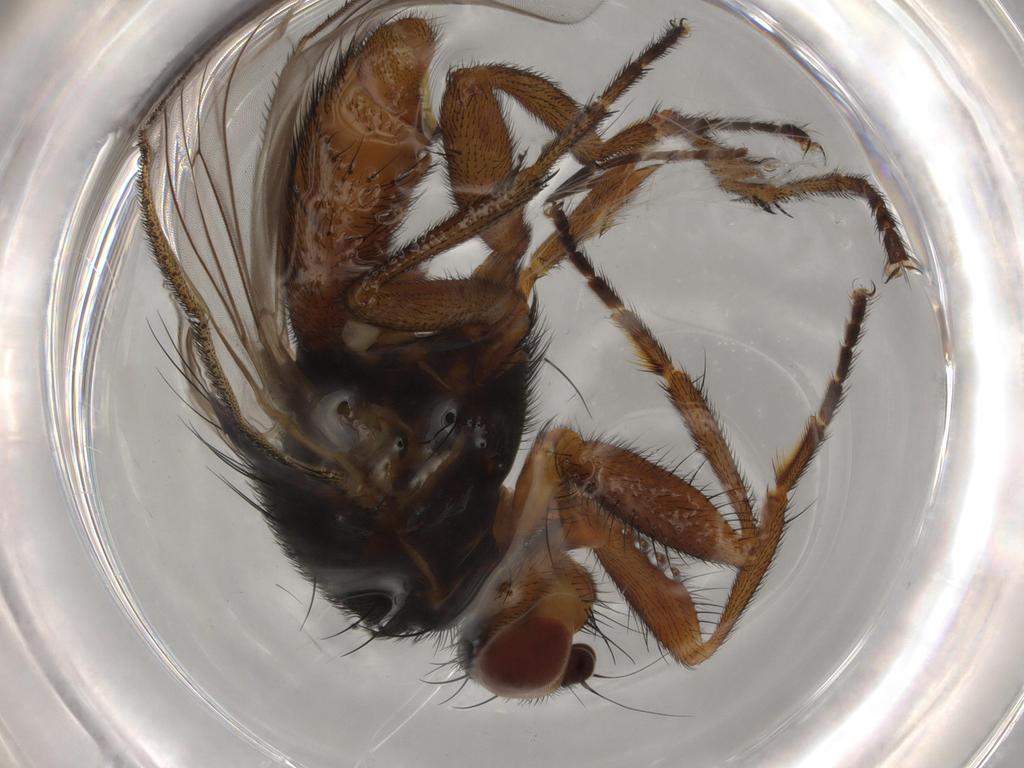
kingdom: Animalia
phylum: Arthropoda
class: Insecta
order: Diptera
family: Heleomyzidae
